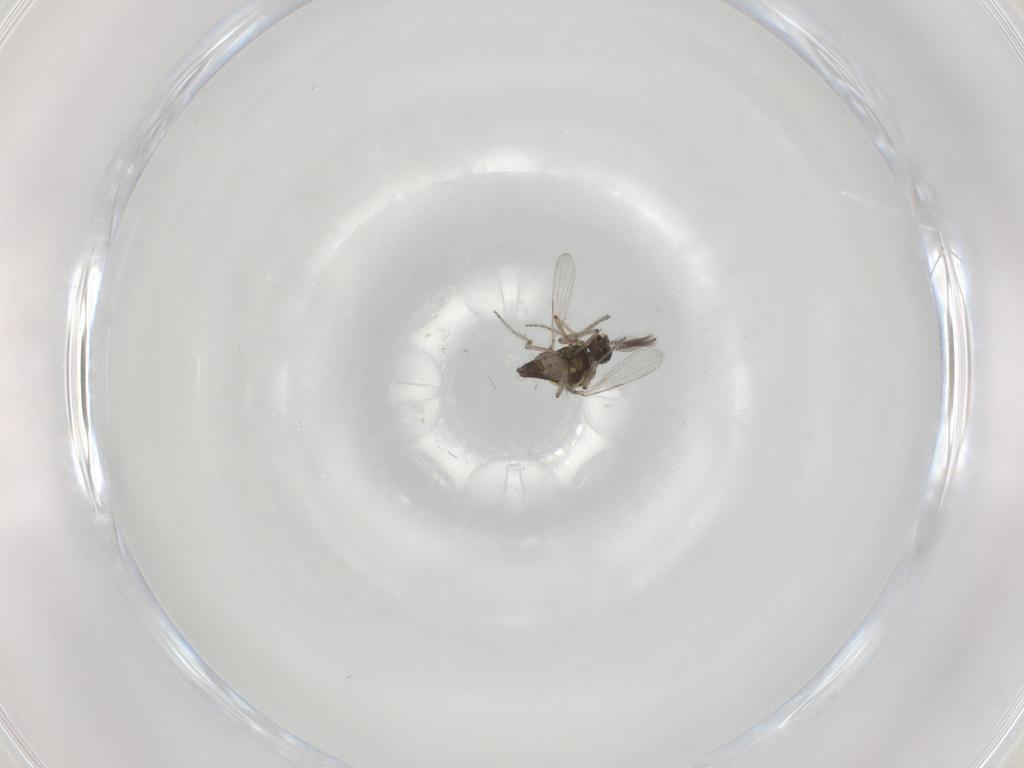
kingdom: Animalia
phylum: Arthropoda
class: Insecta
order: Diptera
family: Ceratopogonidae
